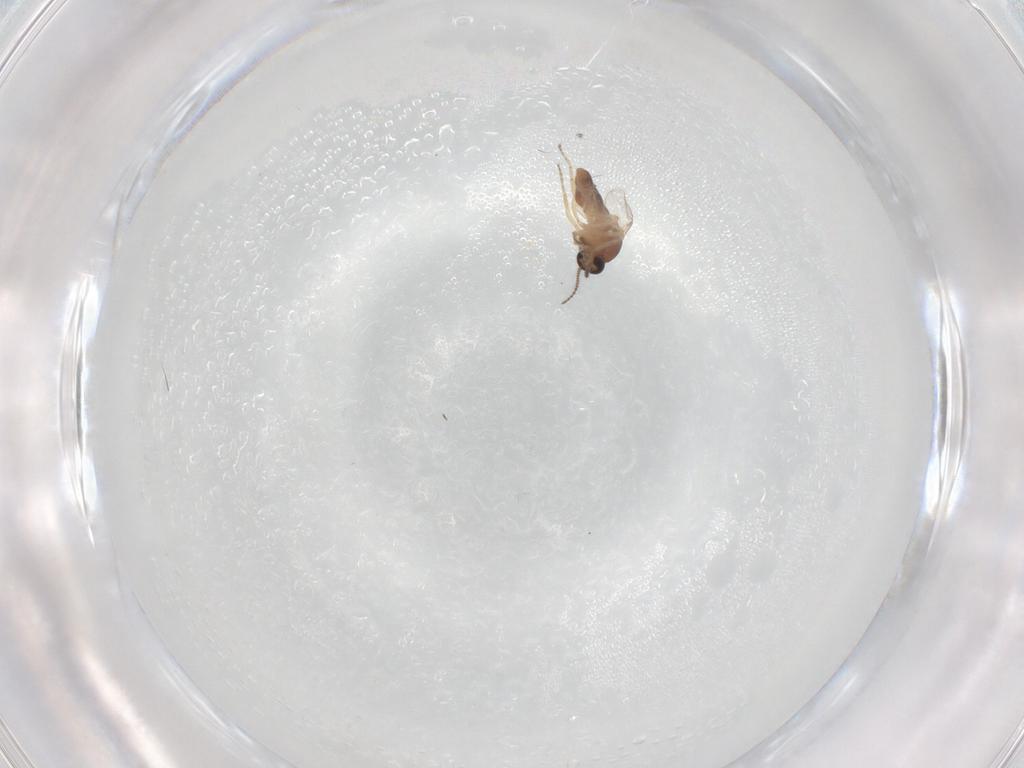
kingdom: Animalia
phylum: Arthropoda
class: Insecta
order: Diptera
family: Ceratopogonidae
